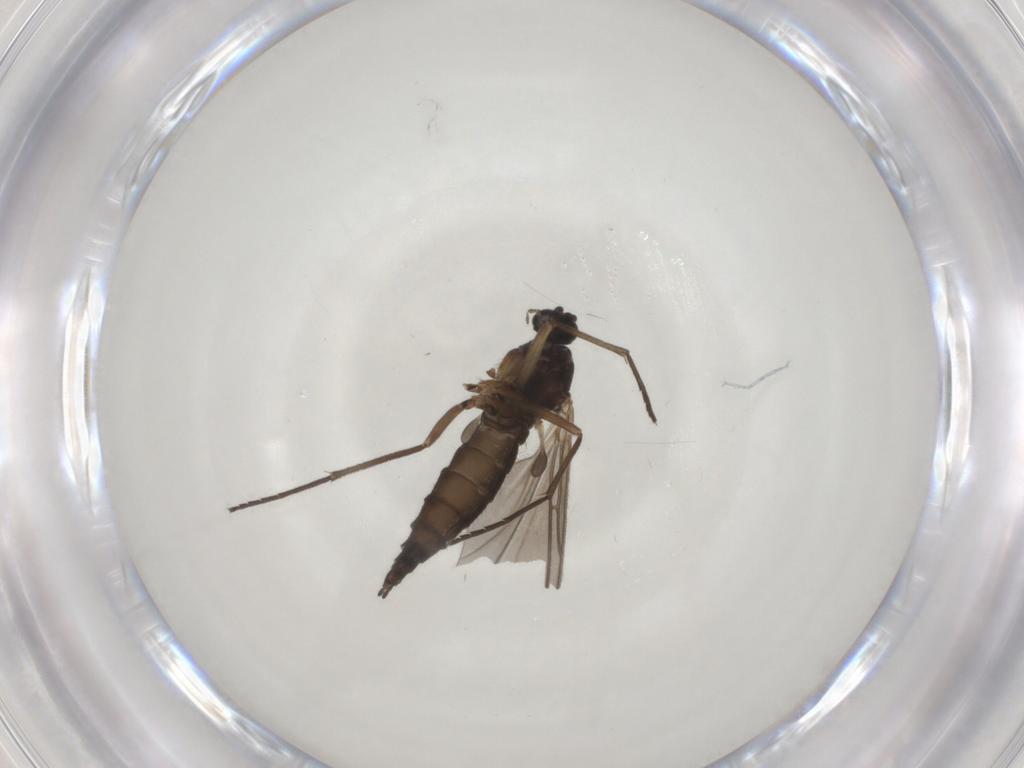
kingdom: Animalia
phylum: Arthropoda
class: Insecta
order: Diptera
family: Sciaridae
